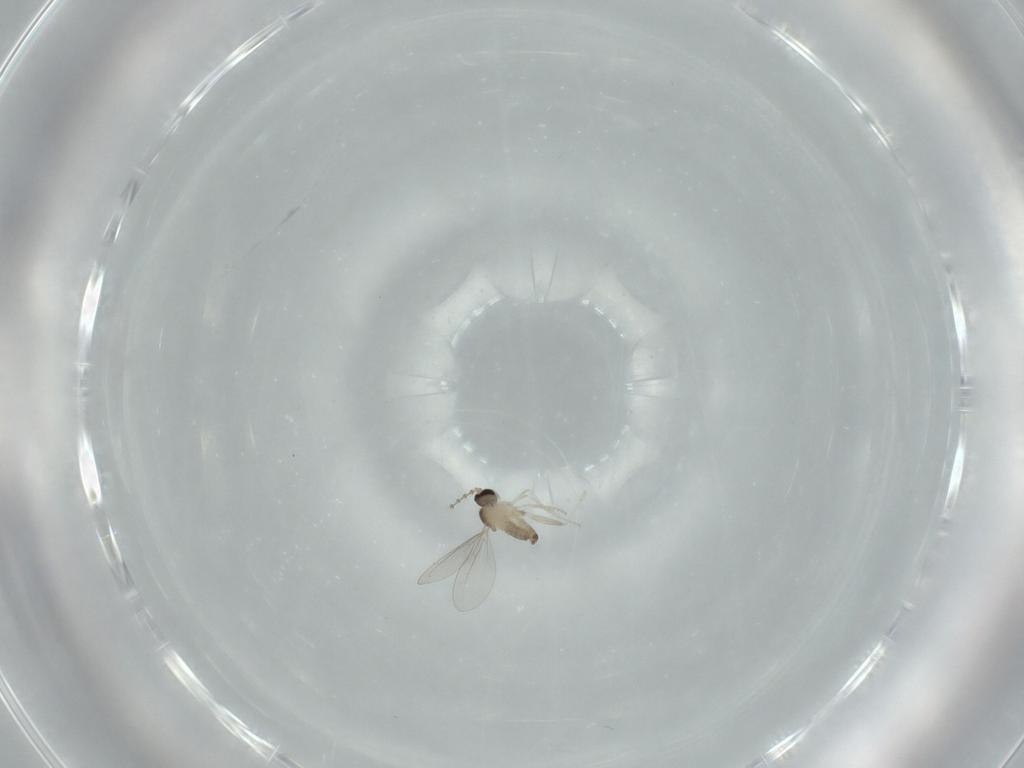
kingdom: Animalia
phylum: Arthropoda
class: Insecta
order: Diptera
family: Cecidomyiidae
